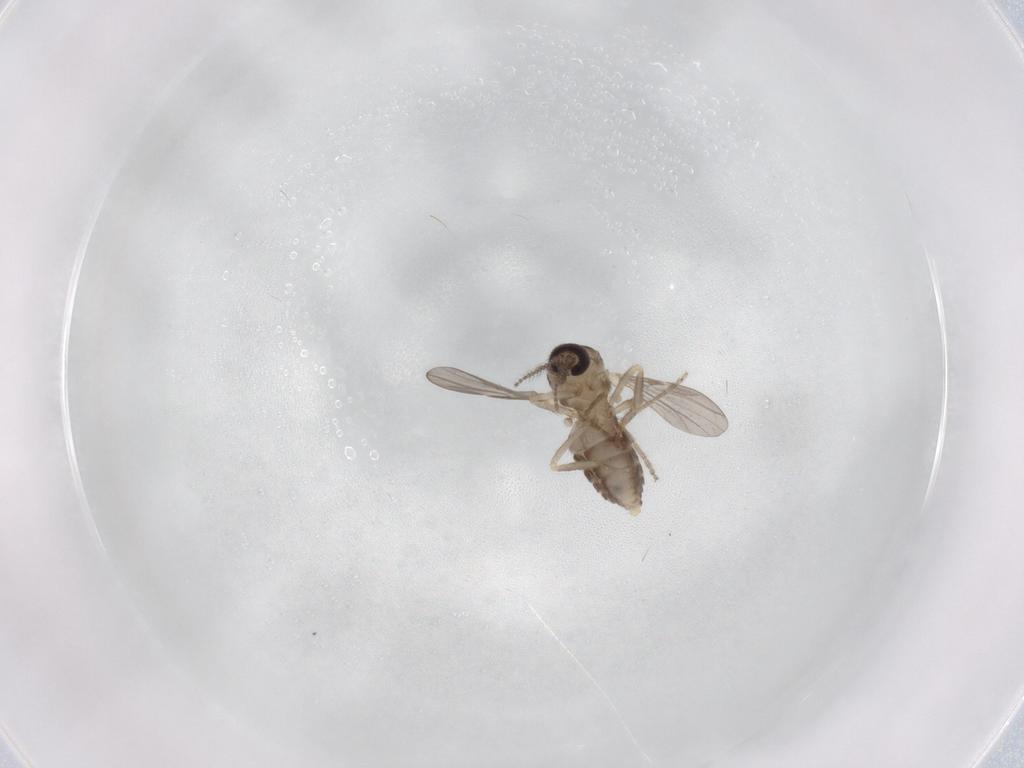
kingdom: Animalia
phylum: Arthropoda
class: Insecta
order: Diptera
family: Ceratopogonidae
